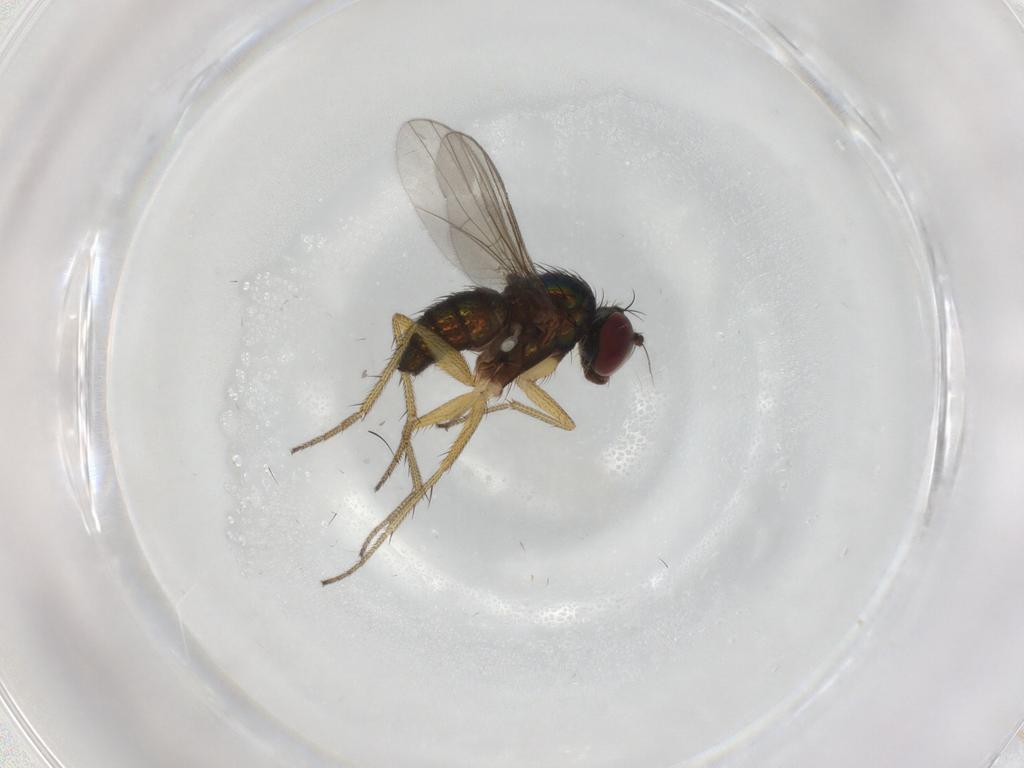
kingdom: Animalia
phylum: Arthropoda
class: Insecta
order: Diptera
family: Dolichopodidae
